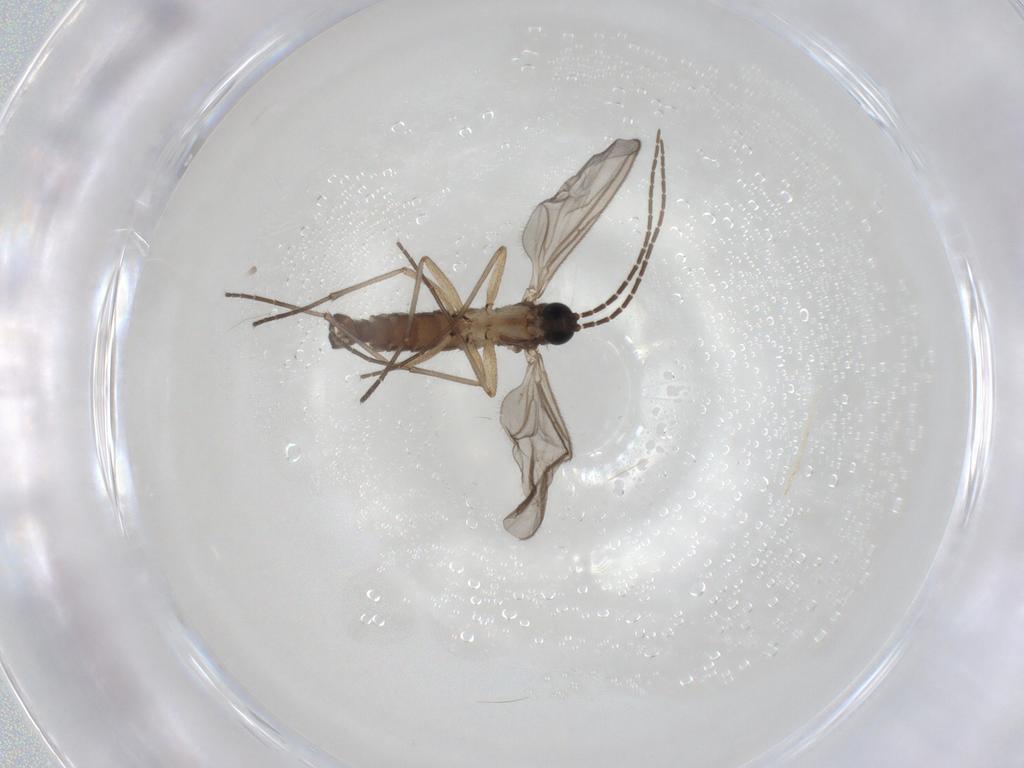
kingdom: Animalia
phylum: Arthropoda
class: Insecta
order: Diptera
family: Sciaridae
